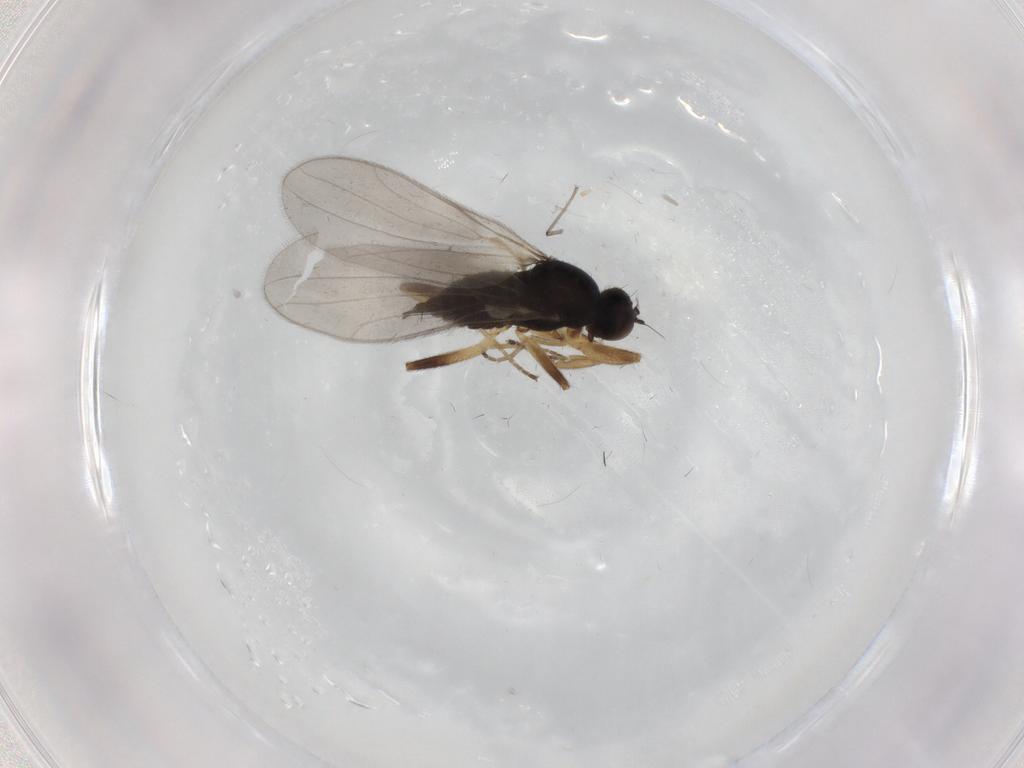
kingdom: Animalia
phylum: Arthropoda
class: Insecta
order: Diptera
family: Hybotidae
